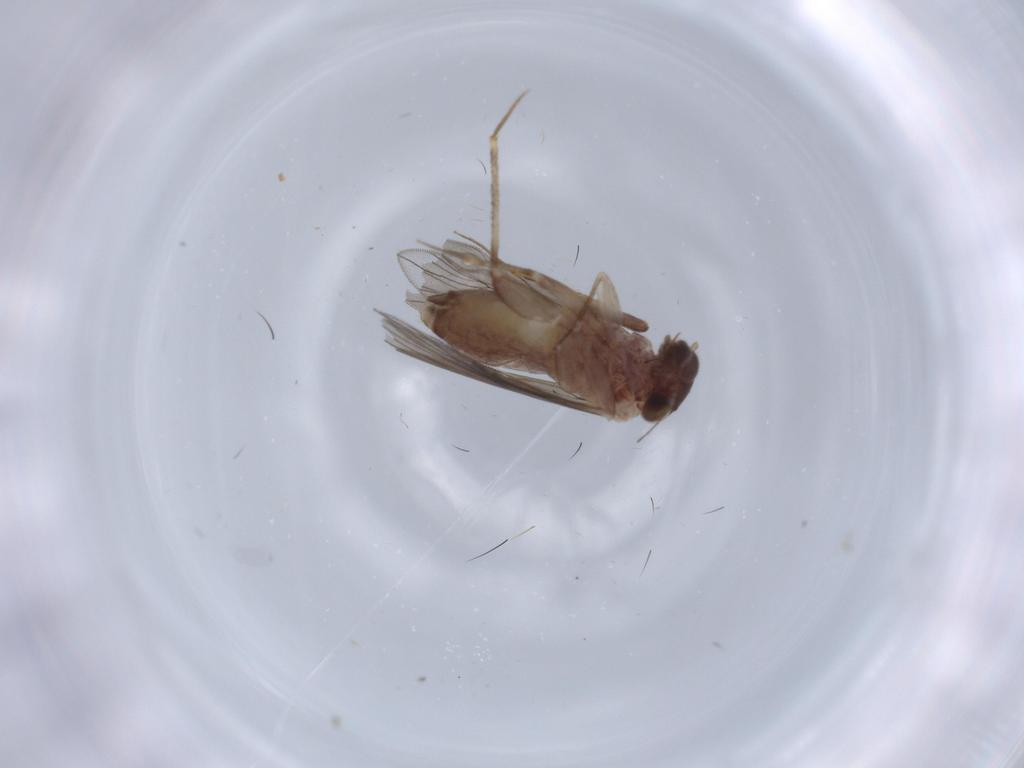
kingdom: Animalia
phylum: Arthropoda
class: Insecta
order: Psocodea
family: Lepidopsocidae
